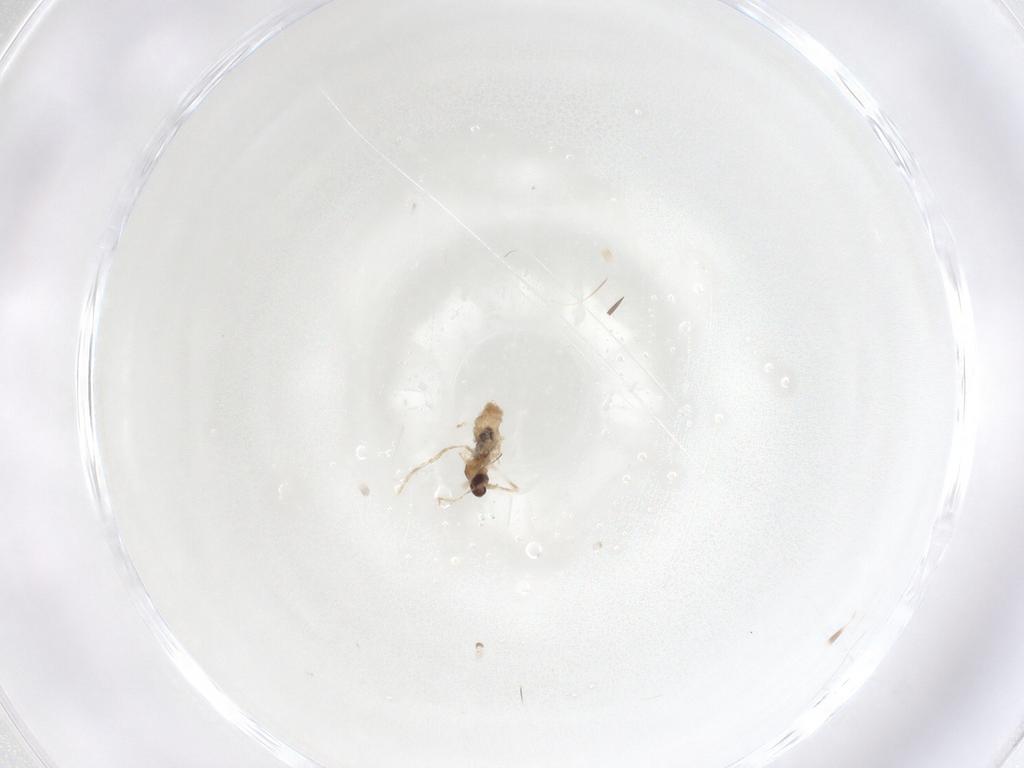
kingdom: Animalia
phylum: Arthropoda
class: Insecta
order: Diptera
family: Cecidomyiidae
